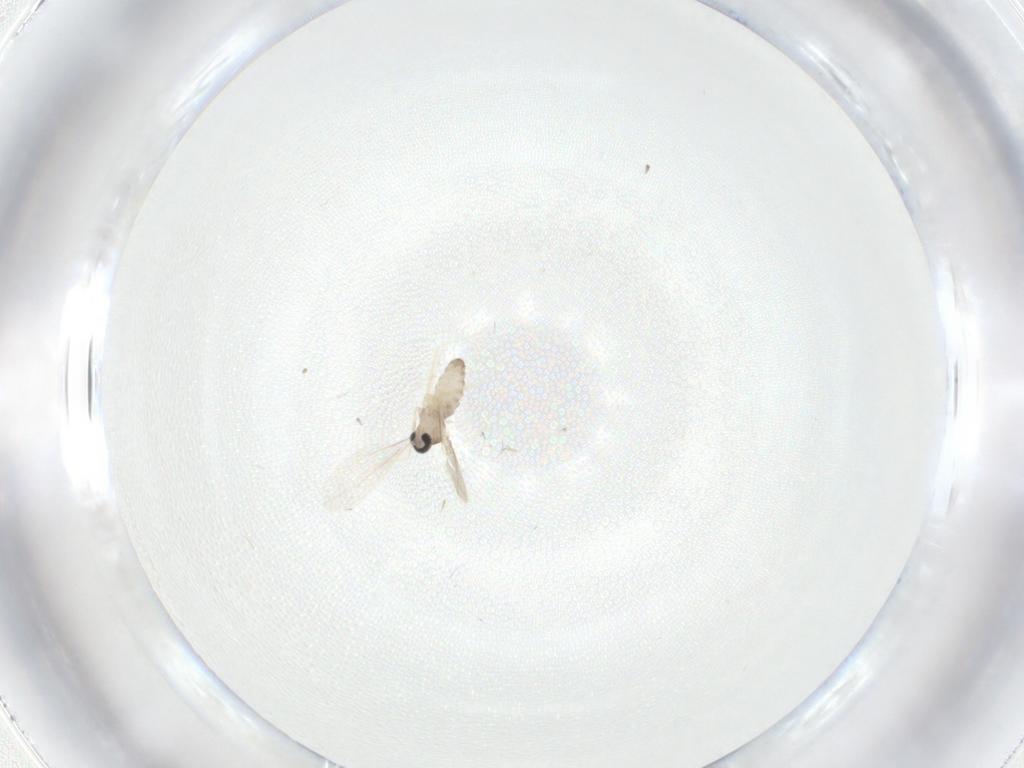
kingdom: Animalia
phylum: Arthropoda
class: Insecta
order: Diptera
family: Cecidomyiidae
